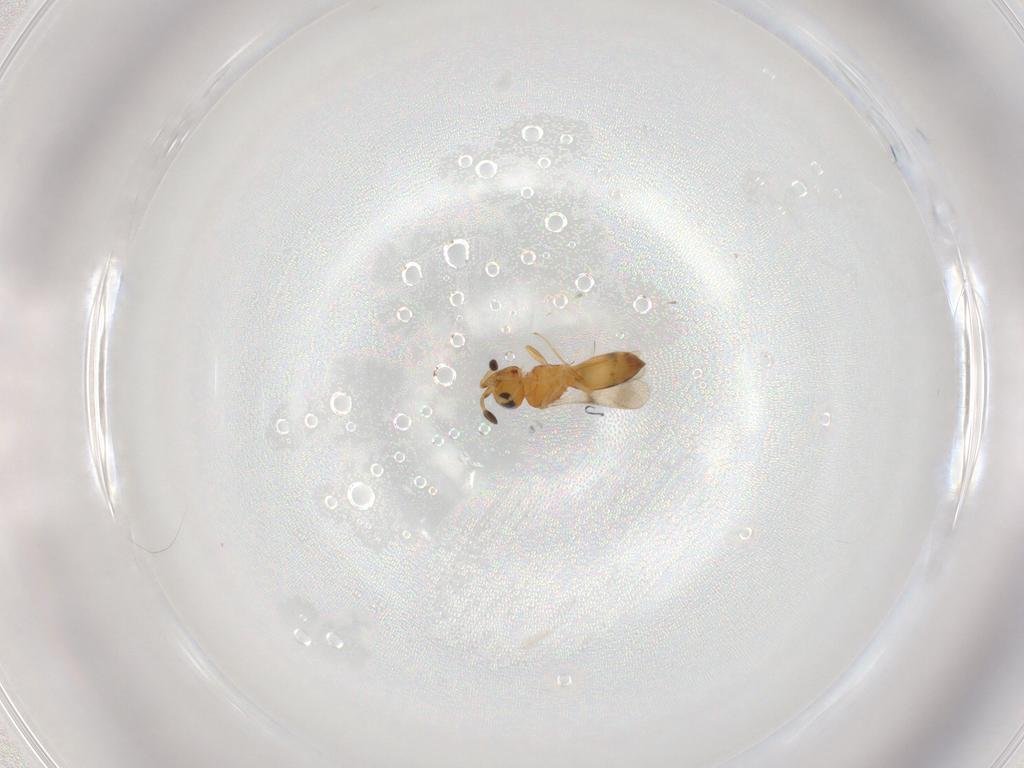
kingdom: Animalia
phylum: Arthropoda
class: Insecta
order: Hymenoptera
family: Scelionidae
